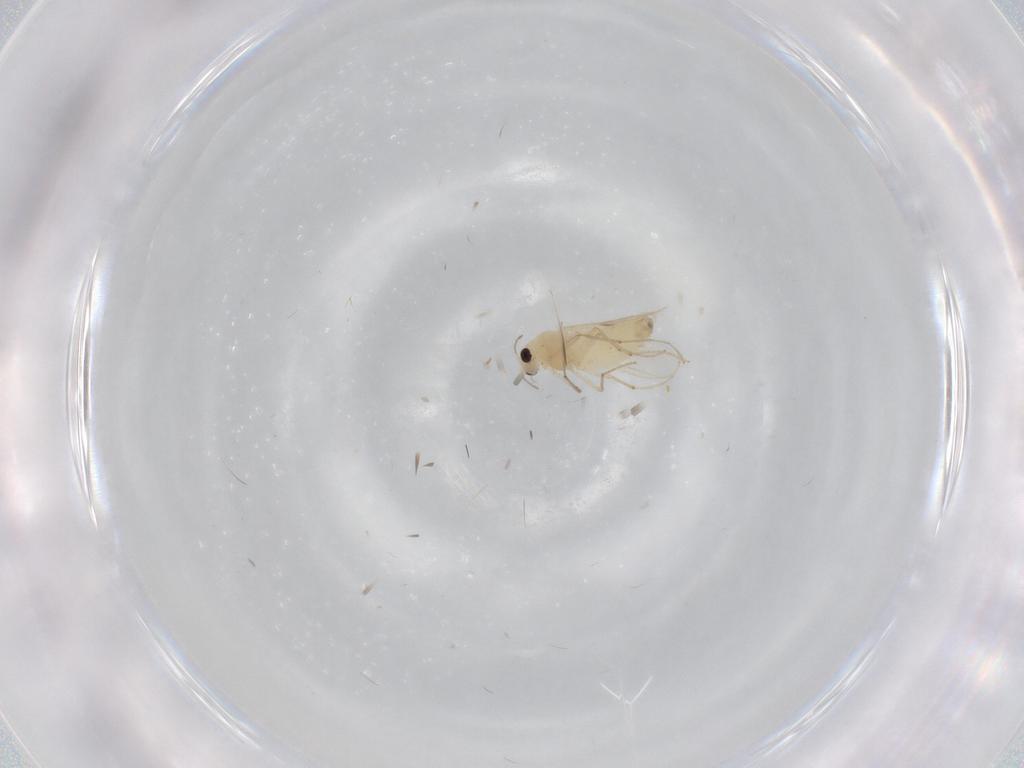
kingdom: Animalia
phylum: Arthropoda
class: Insecta
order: Diptera
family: Chironomidae
